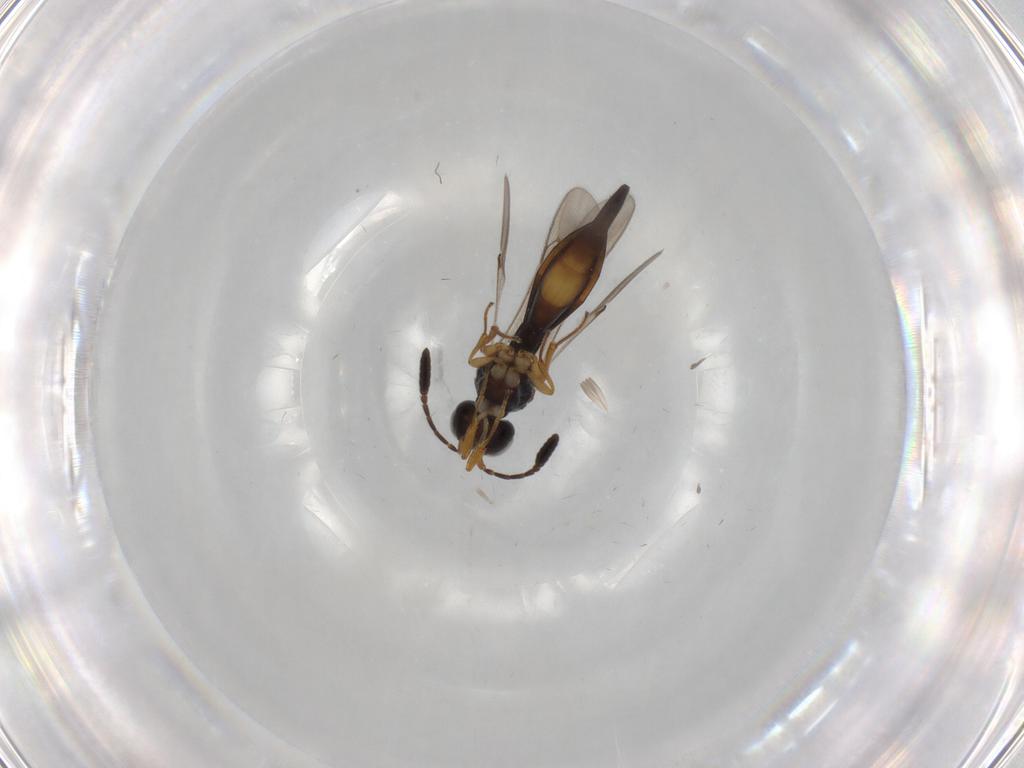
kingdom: Animalia
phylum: Arthropoda
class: Insecta
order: Hymenoptera
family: Scelionidae
